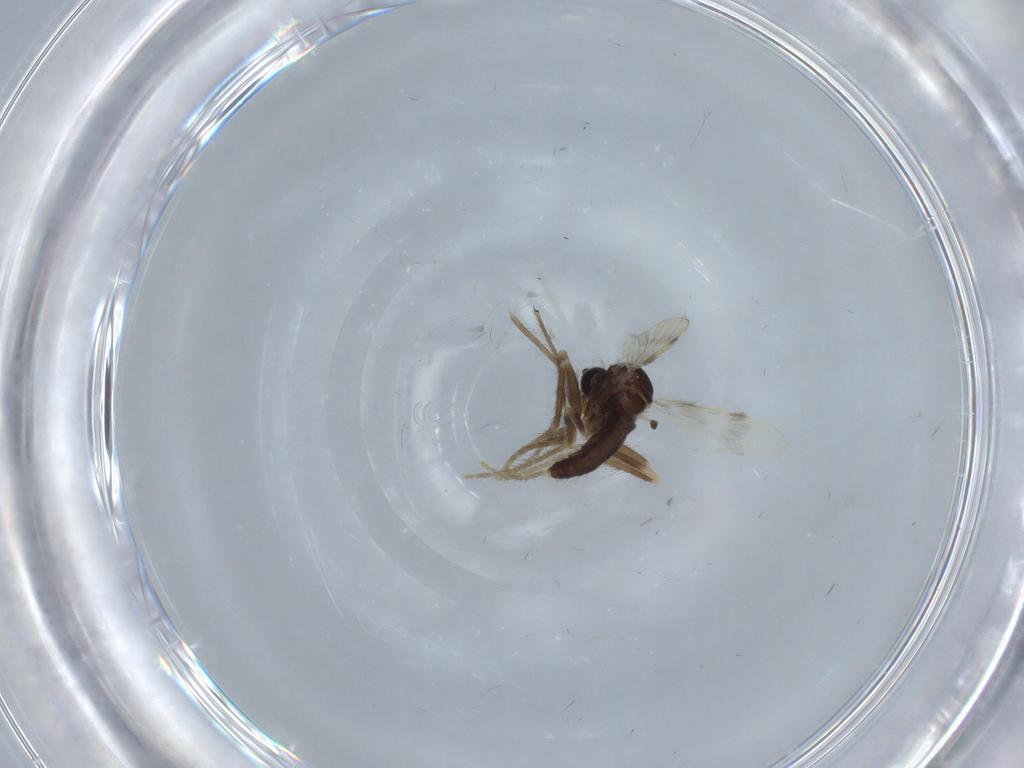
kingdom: Animalia
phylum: Arthropoda
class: Insecta
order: Diptera
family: Phoridae
